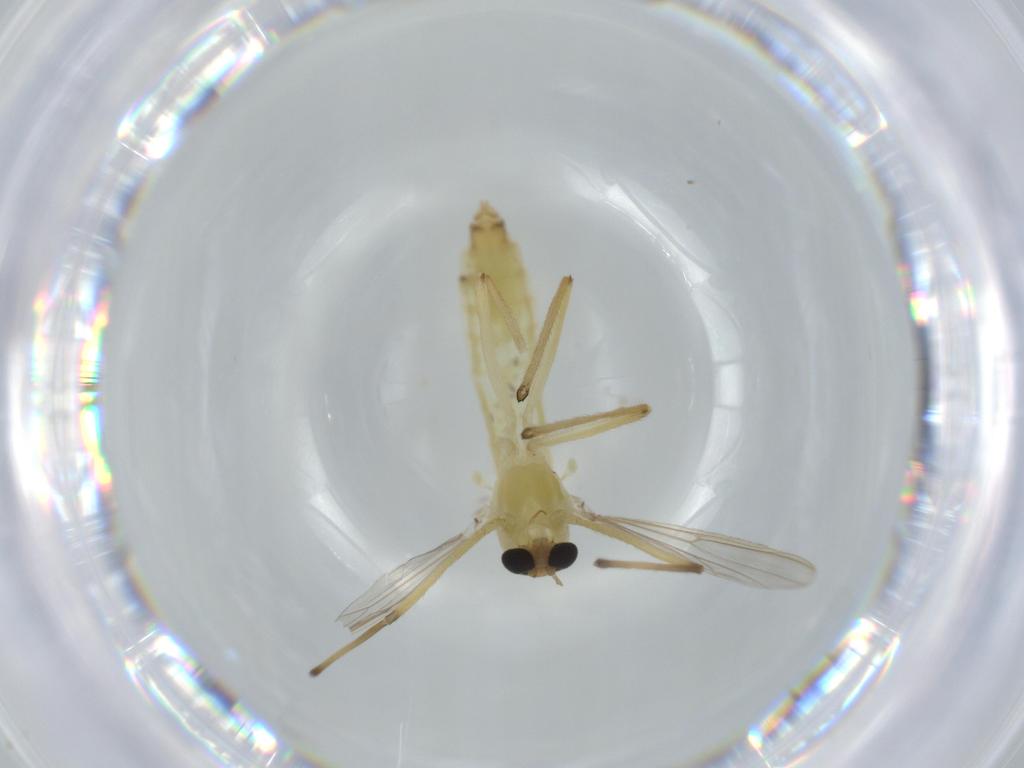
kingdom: Animalia
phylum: Arthropoda
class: Insecta
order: Diptera
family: Chironomidae
